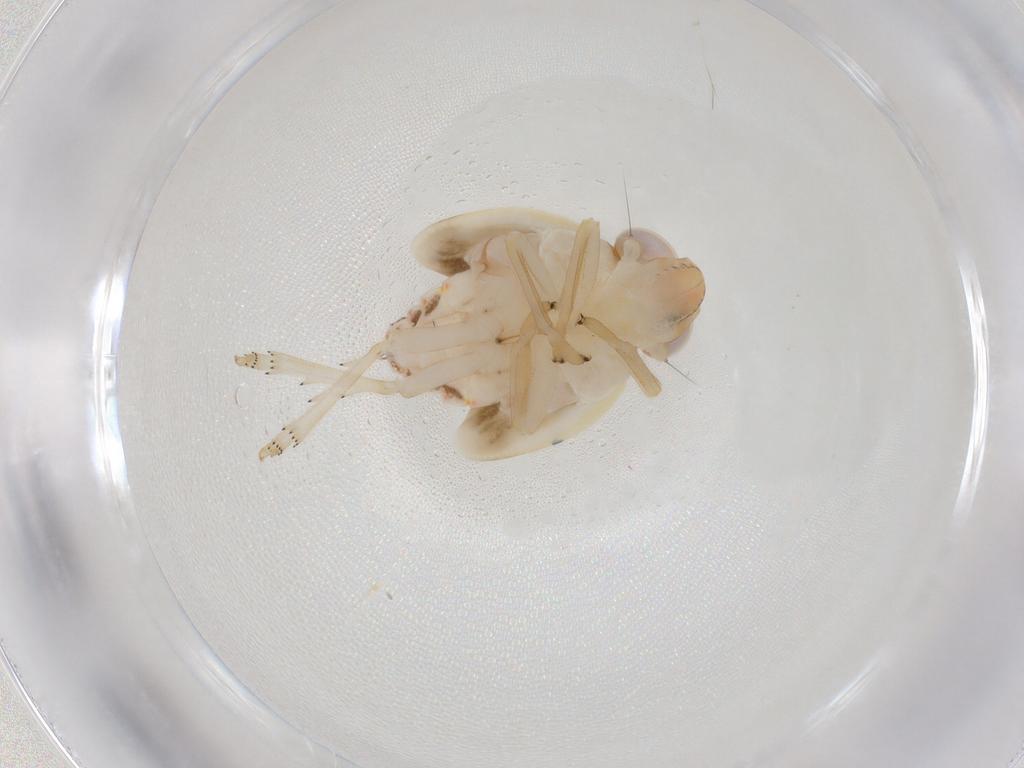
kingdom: Animalia
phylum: Arthropoda
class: Insecta
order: Hemiptera
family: Nogodinidae
